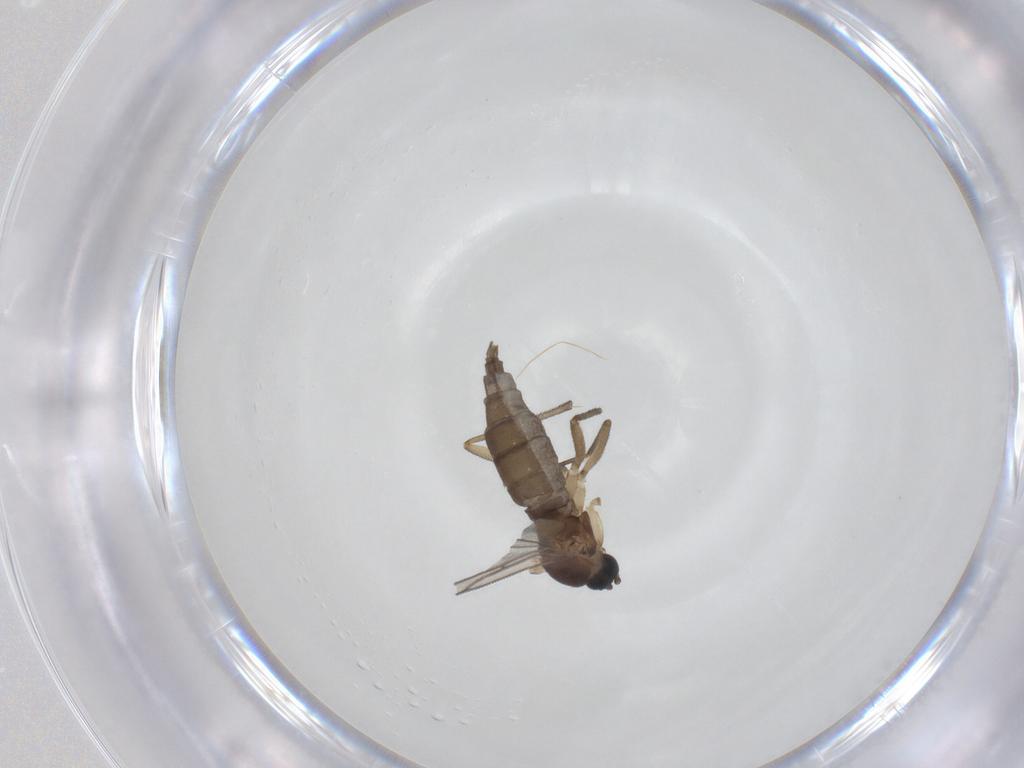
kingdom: Animalia
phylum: Arthropoda
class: Insecta
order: Diptera
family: Sciaridae
